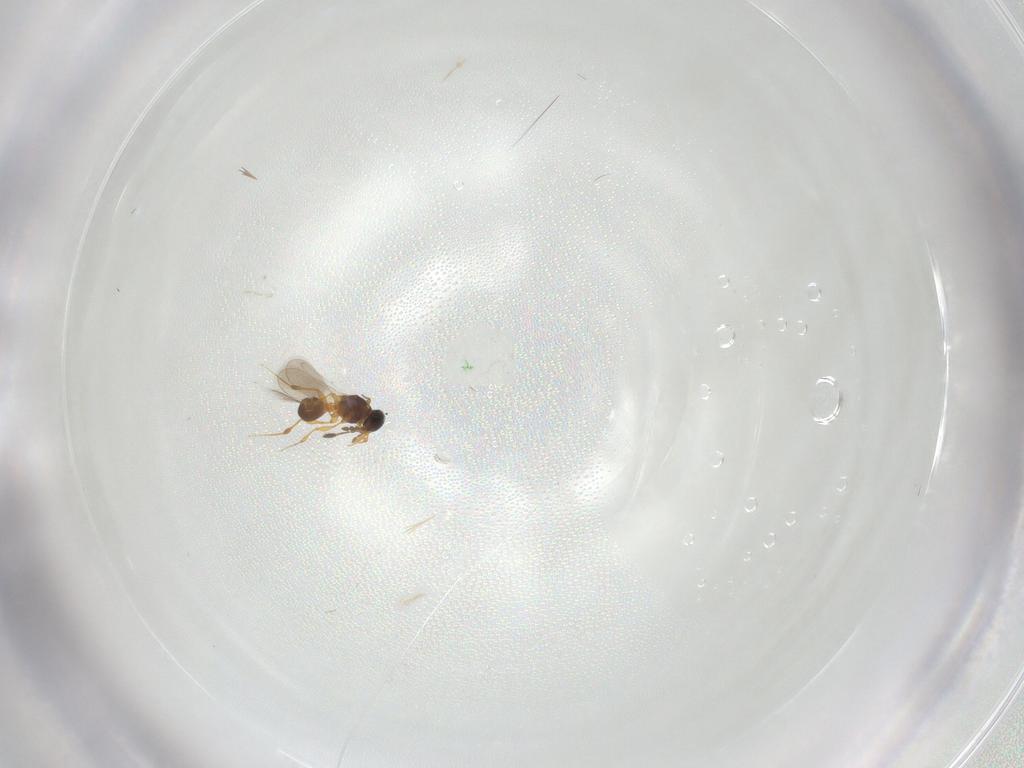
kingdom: Animalia
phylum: Arthropoda
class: Insecta
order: Hymenoptera
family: Platygastridae
